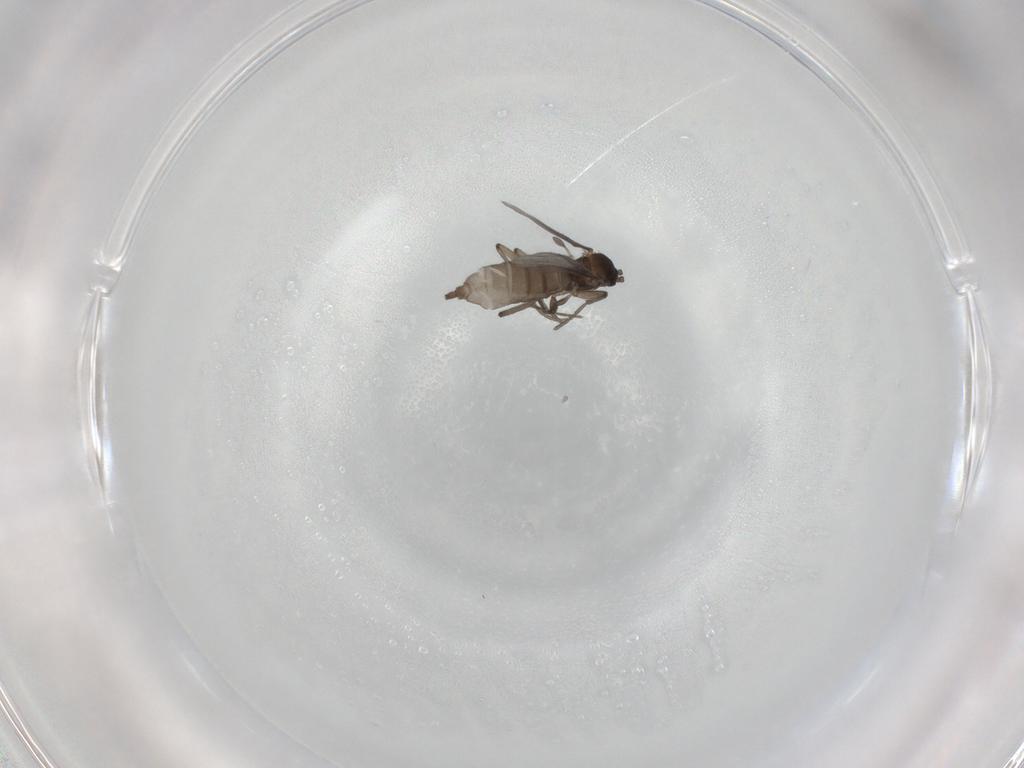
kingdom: Animalia
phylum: Arthropoda
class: Insecta
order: Diptera
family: Sciaridae
